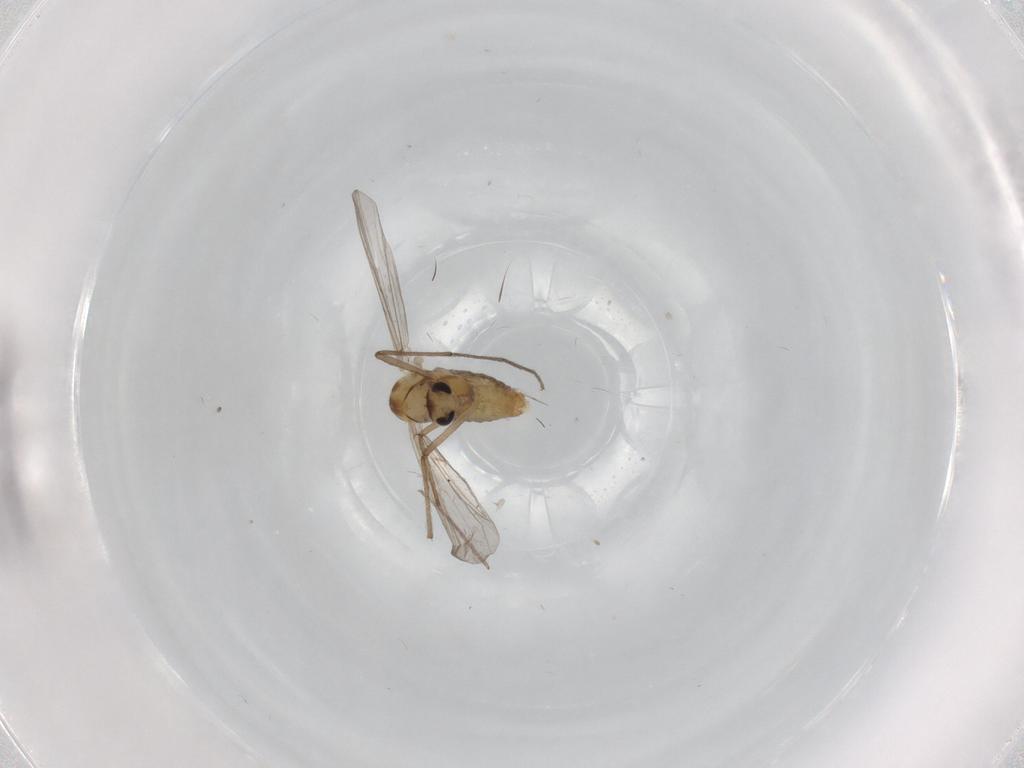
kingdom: Animalia
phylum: Arthropoda
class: Insecta
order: Diptera
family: Chironomidae
